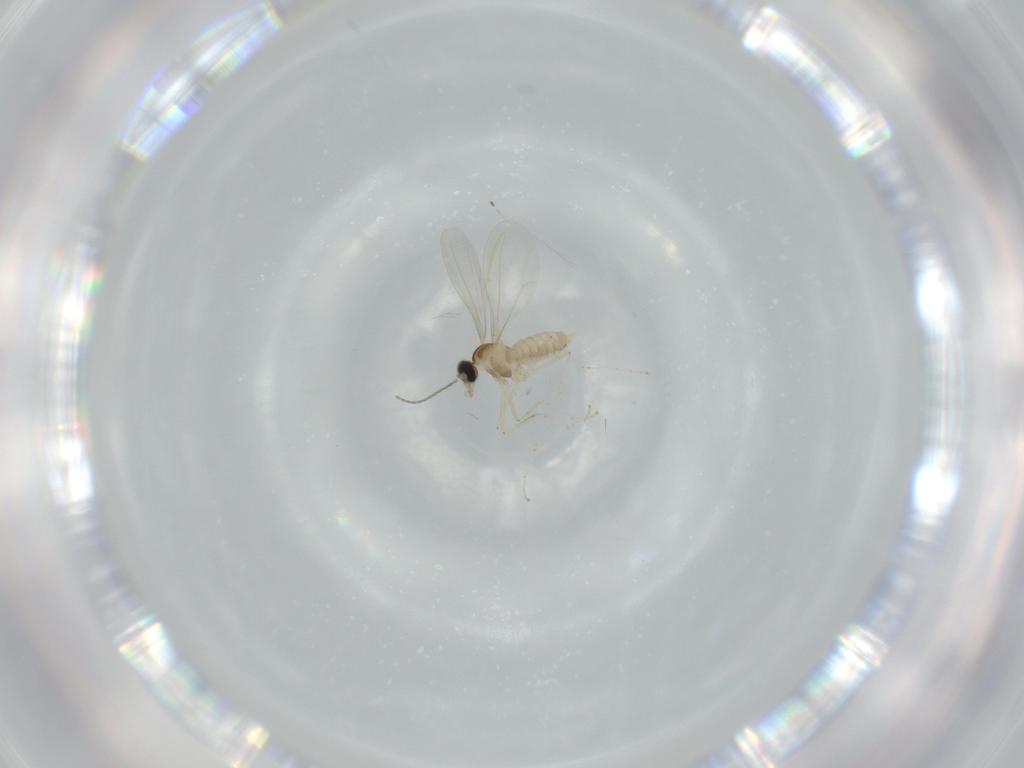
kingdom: Animalia
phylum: Arthropoda
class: Insecta
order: Diptera
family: Cecidomyiidae
